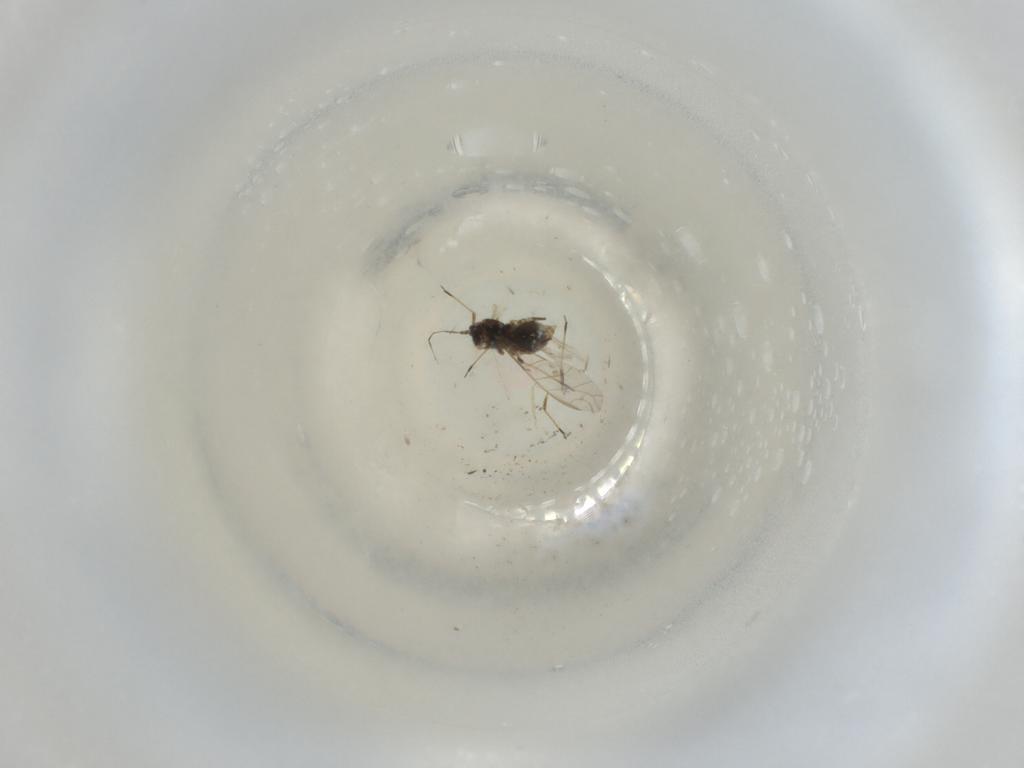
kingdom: Animalia
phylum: Arthropoda
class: Insecta
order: Hemiptera
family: Aphididae
